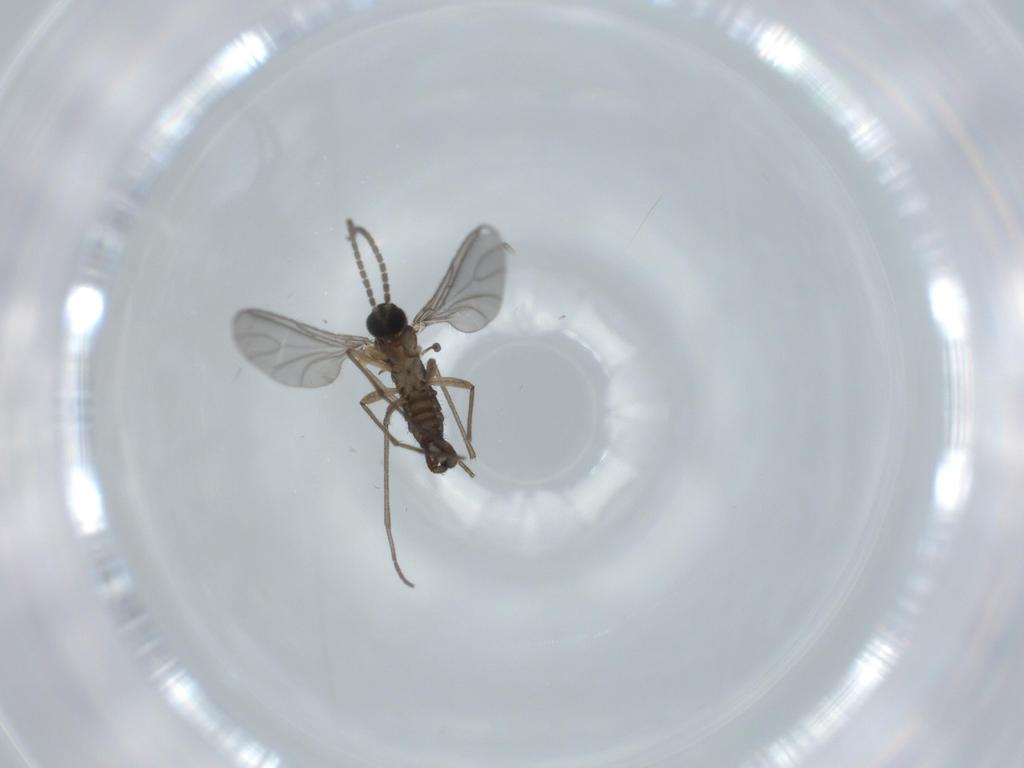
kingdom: Animalia
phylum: Arthropoda
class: Insecta
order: Diptera
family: Sciaridae
